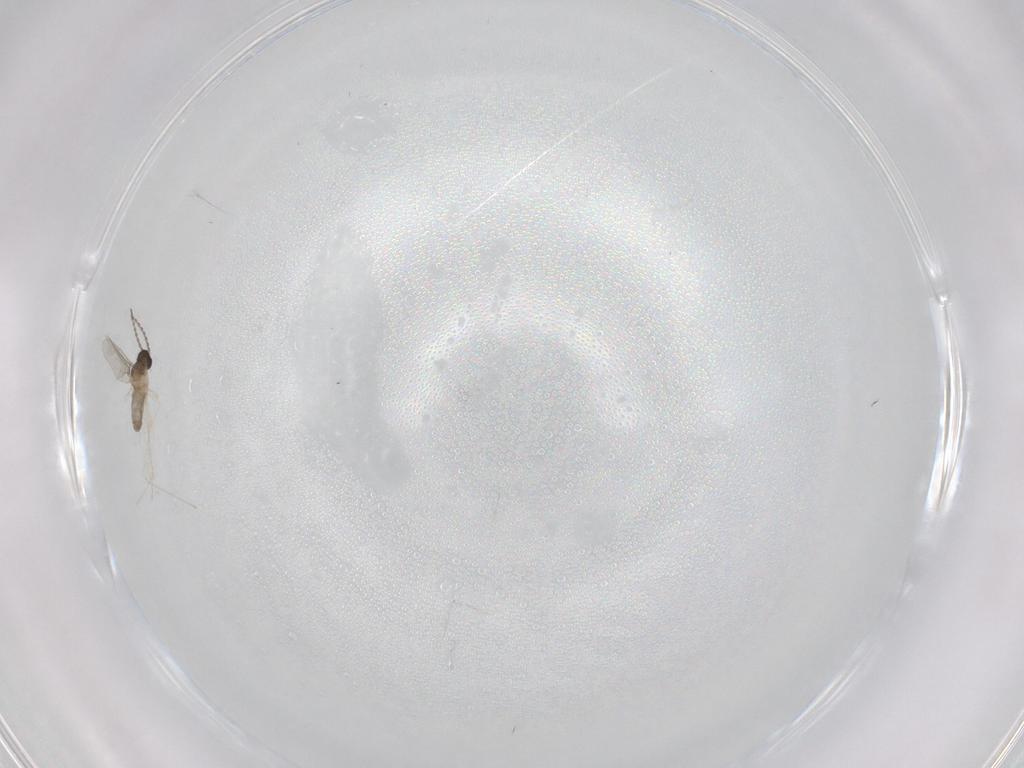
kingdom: Animalia
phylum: Arthropoda
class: Insecta
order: Diptera
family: Cecidomyiidae
